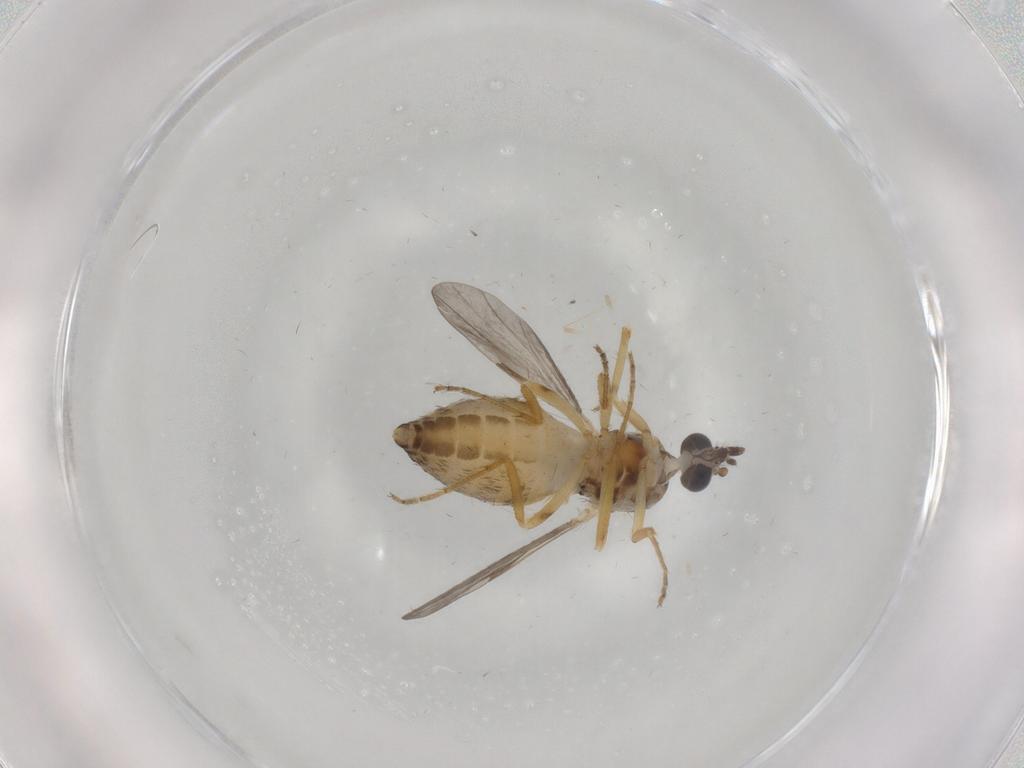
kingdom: Animalia
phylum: Arthropoda
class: Insecta
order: Diptera
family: Ceratopogonidae
